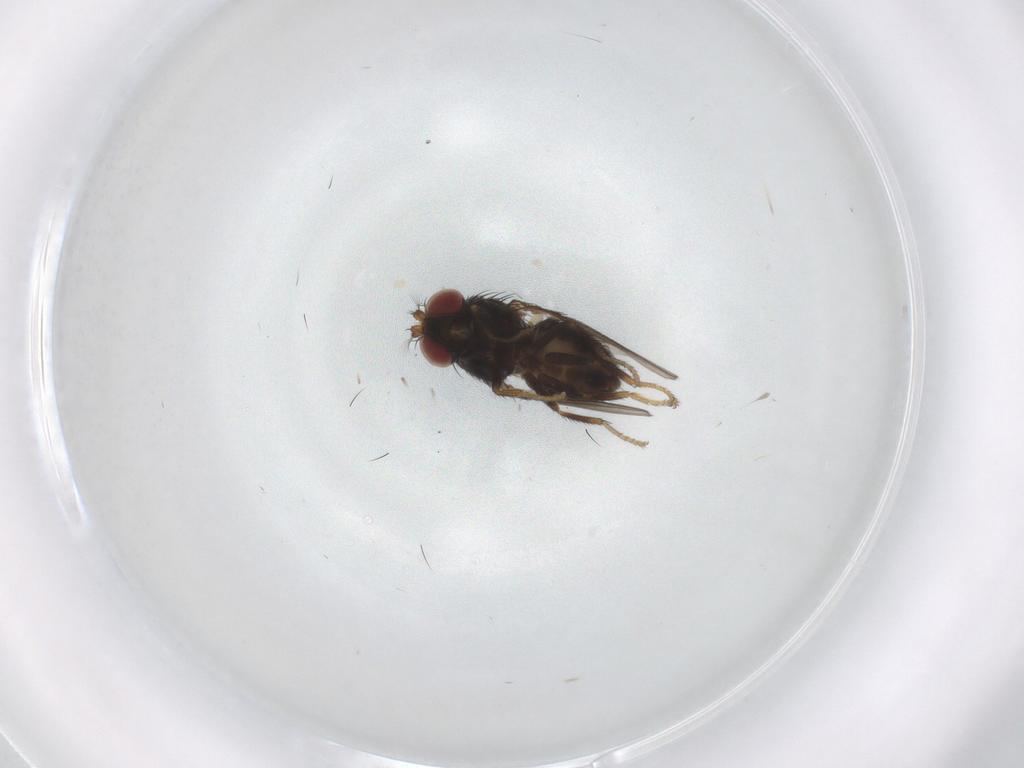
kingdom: Animalia
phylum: Arthropoda
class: Insecta
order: Diptera
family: Ephydridae
